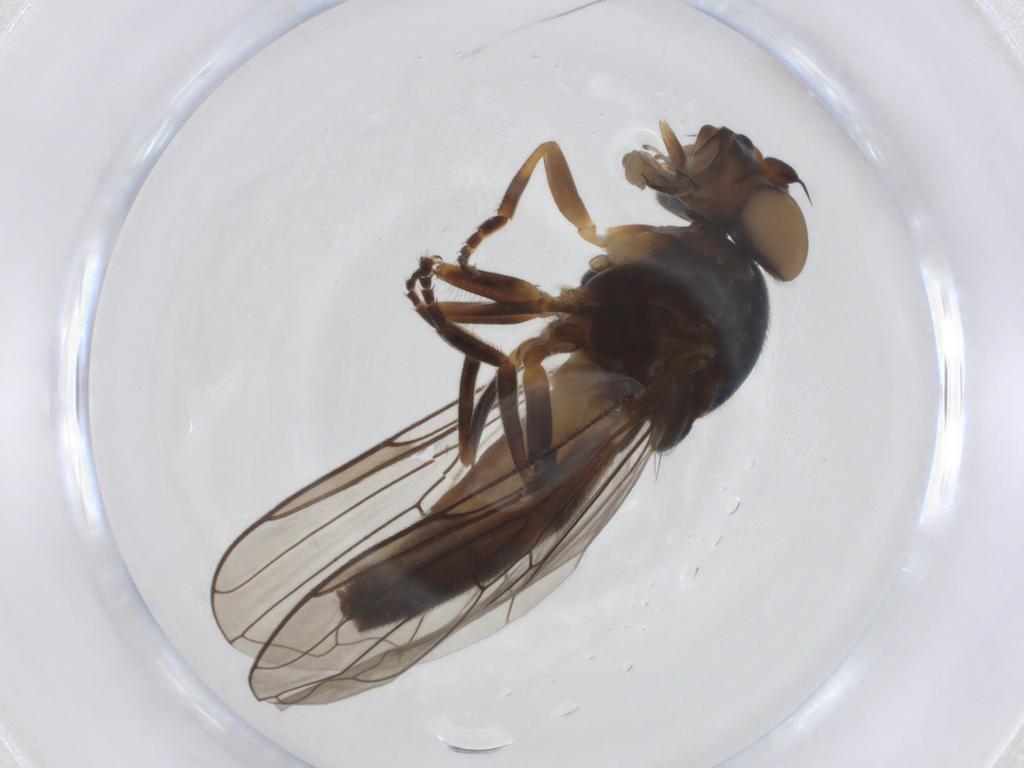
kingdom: Animalia
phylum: Arthropoda
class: Insecta
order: Diptera
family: Syrphidae
